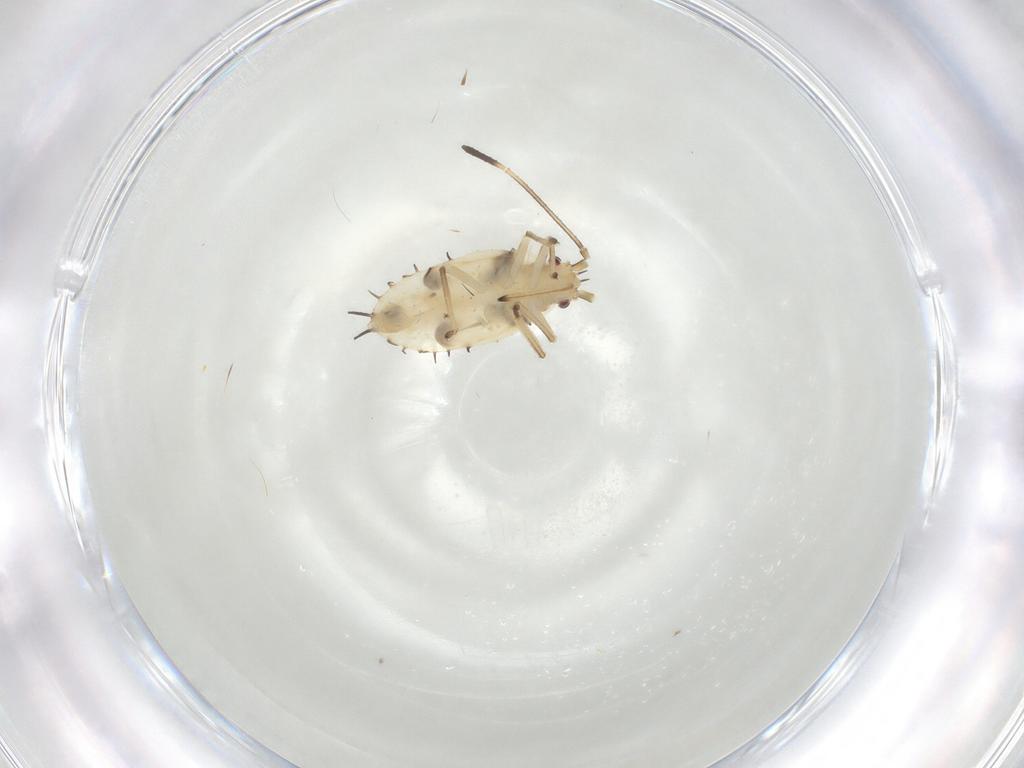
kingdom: Animalia
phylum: Arthropoda
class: Insecta
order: Hemiptera
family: Tingidae
